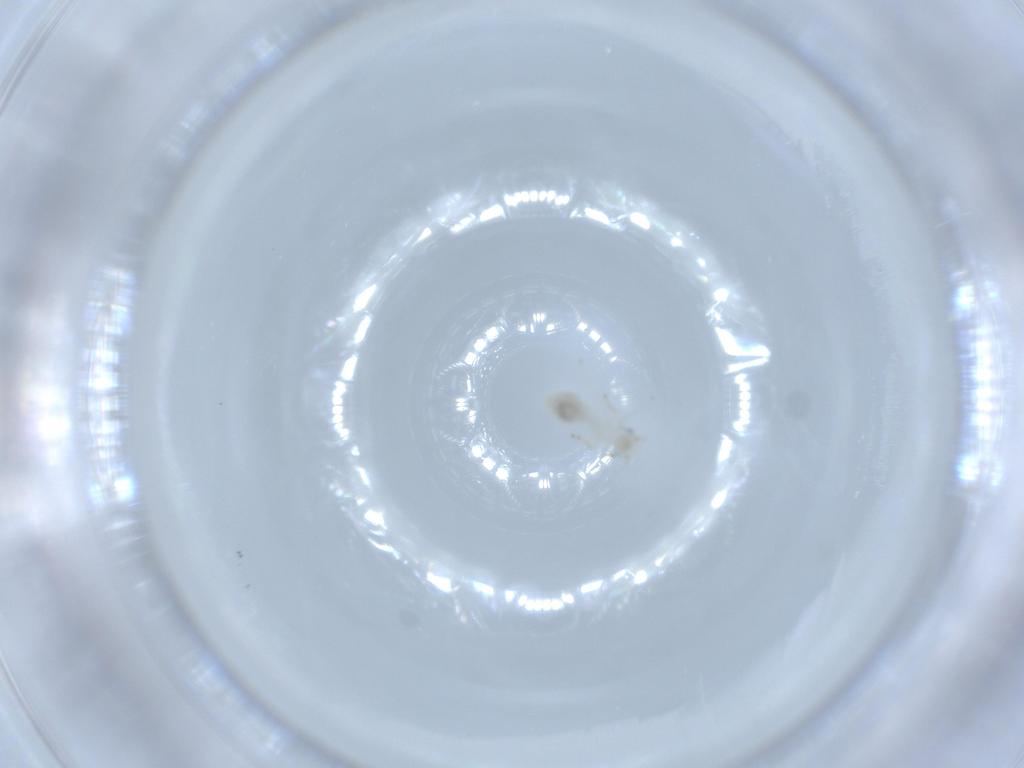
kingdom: Animalia
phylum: Arthropoda
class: Insecta
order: Psocodea
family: Caeciliusidae
